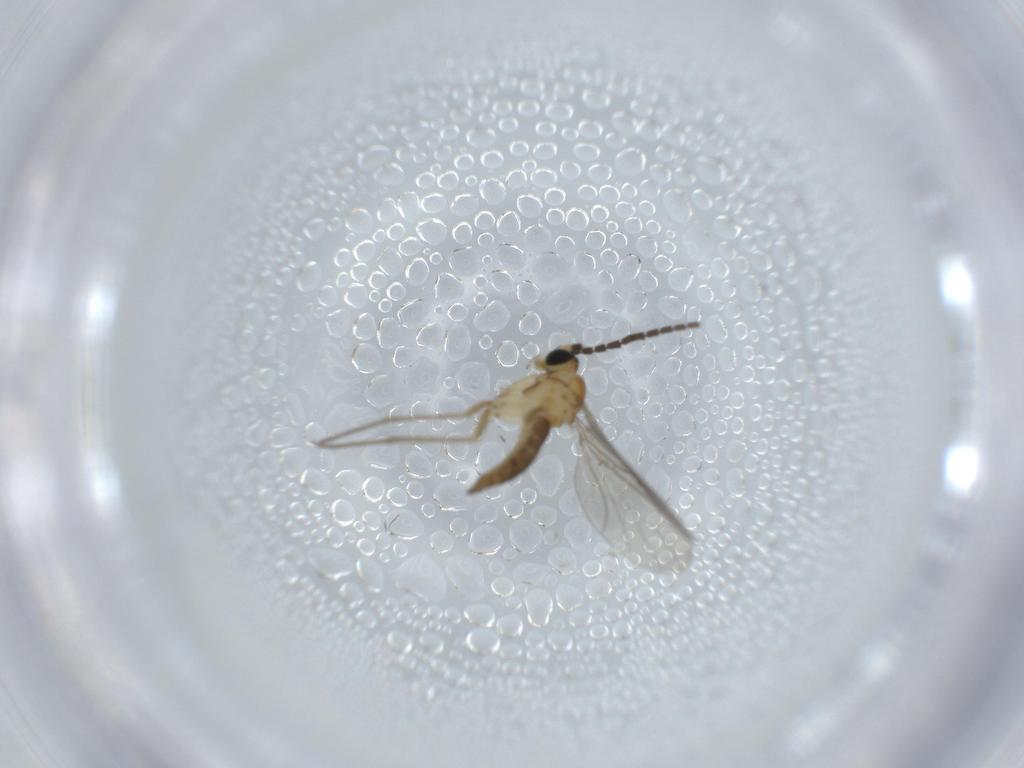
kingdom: Animalia
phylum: Arthropoda
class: Insecta
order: Diptera
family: Sciaridae
